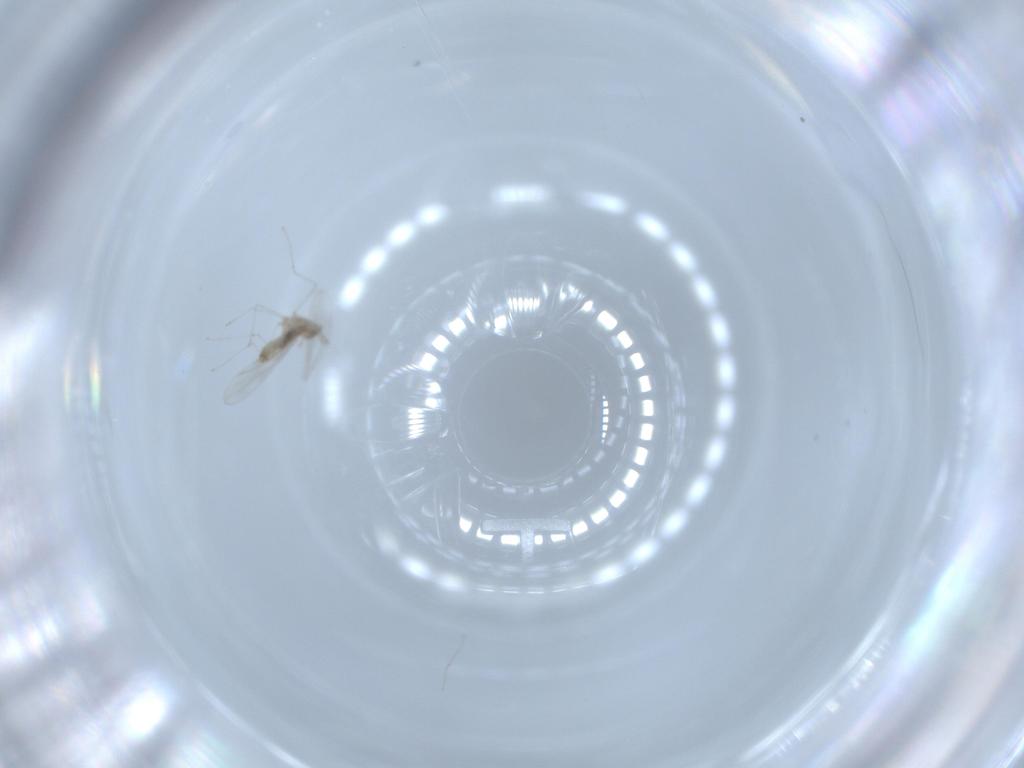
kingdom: Animalia
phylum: Arthropoda
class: Insecta
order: Diptera
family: Cecidomyiidae
